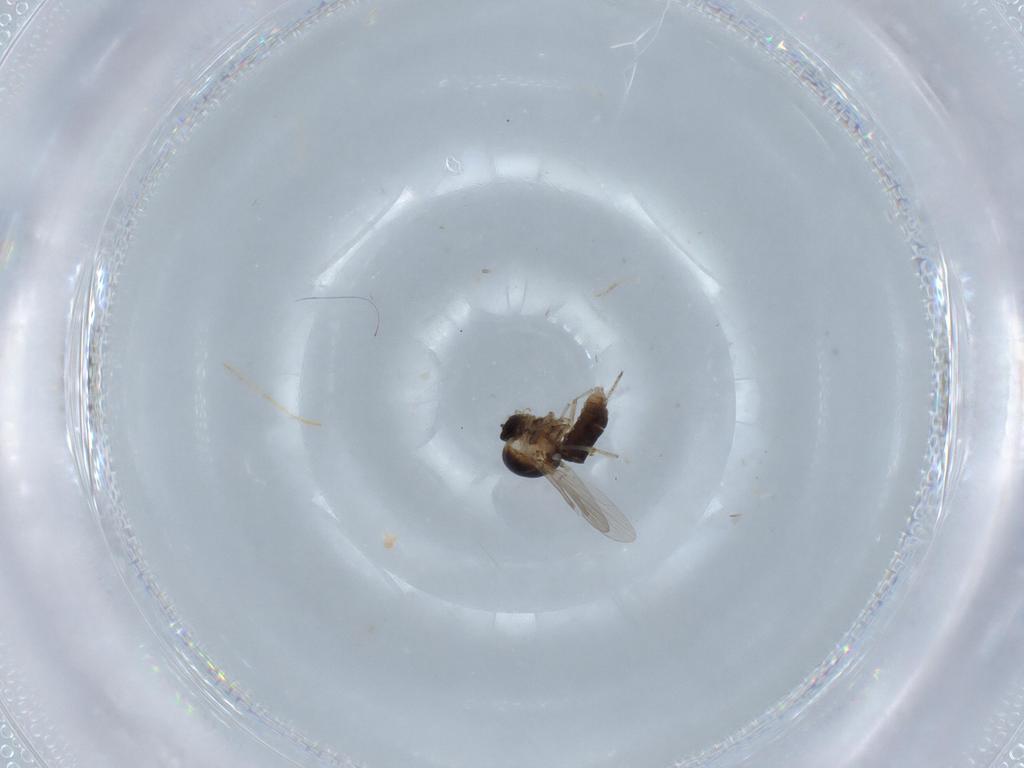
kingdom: Animalia
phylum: Arthropoda
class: Insecta
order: Diptera
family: Ceratopogonidae
